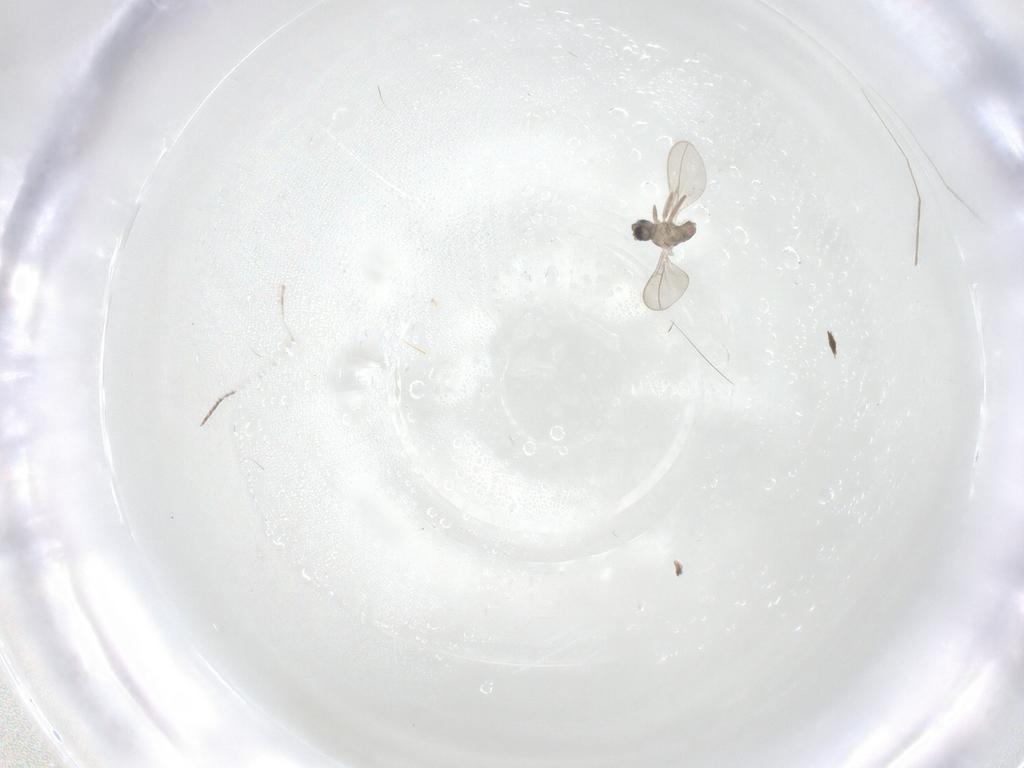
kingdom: Animalia
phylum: Arthropoda
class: Insecta
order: Diptera
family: Cecidomyiidae
